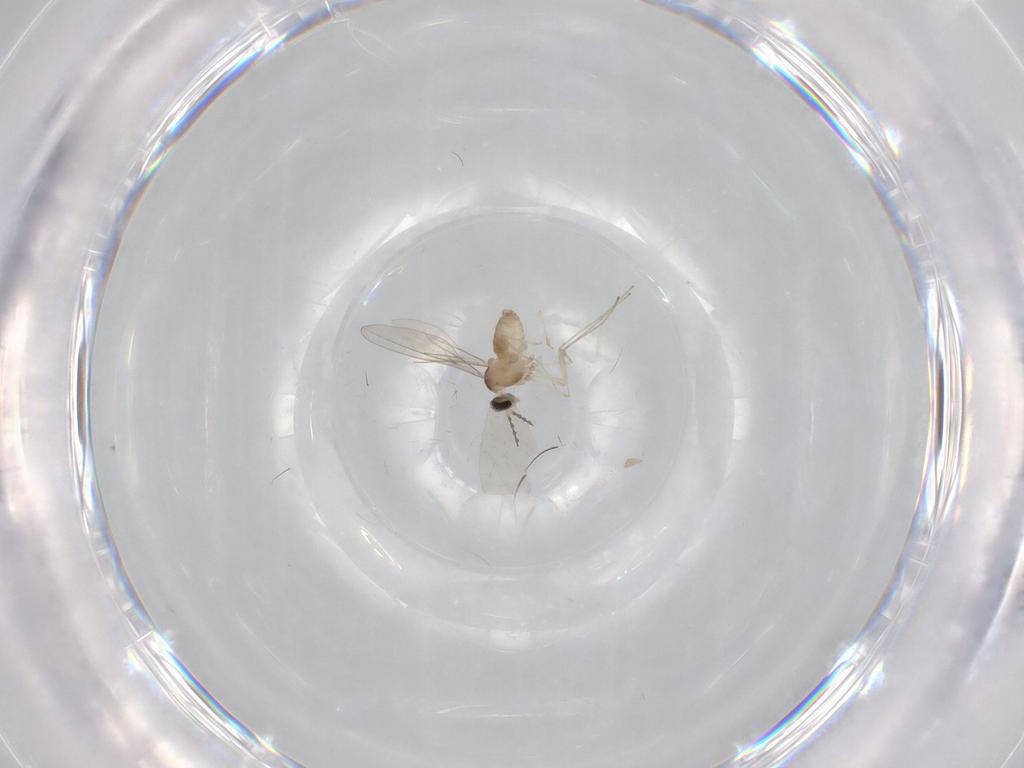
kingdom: Animalia
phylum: Arthropoda
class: Insecta
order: Diptera
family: Cecidomyiidae
